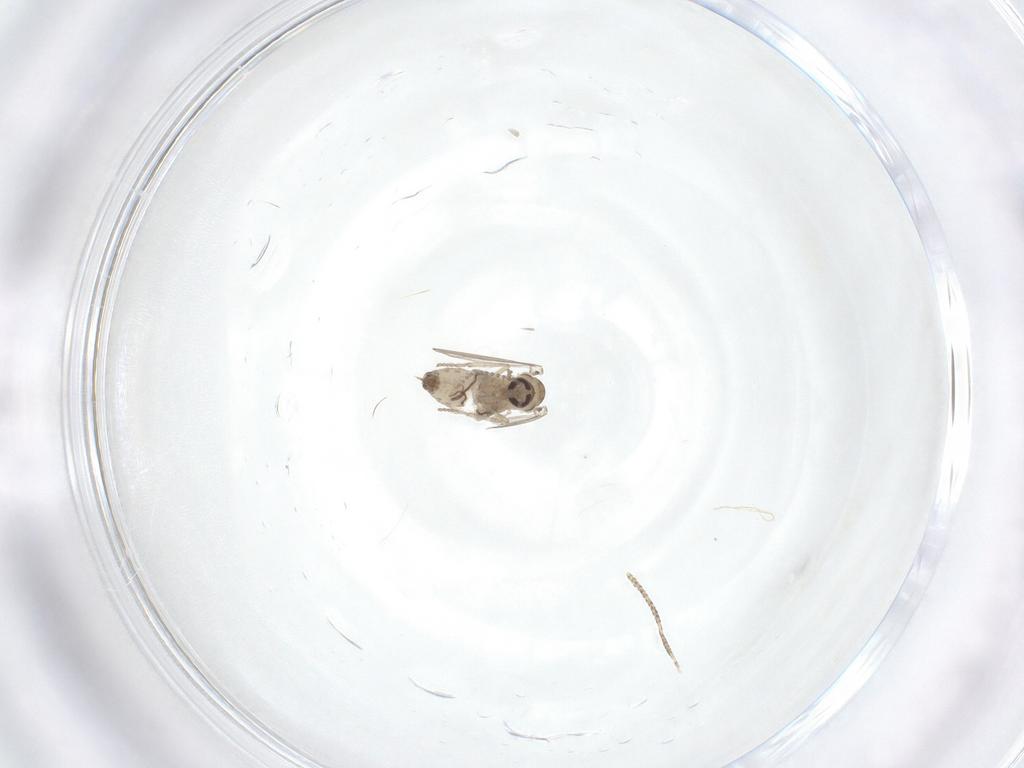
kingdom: Animalia
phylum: Arthropoda
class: Insecta
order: Diptera
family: Psychodidae
